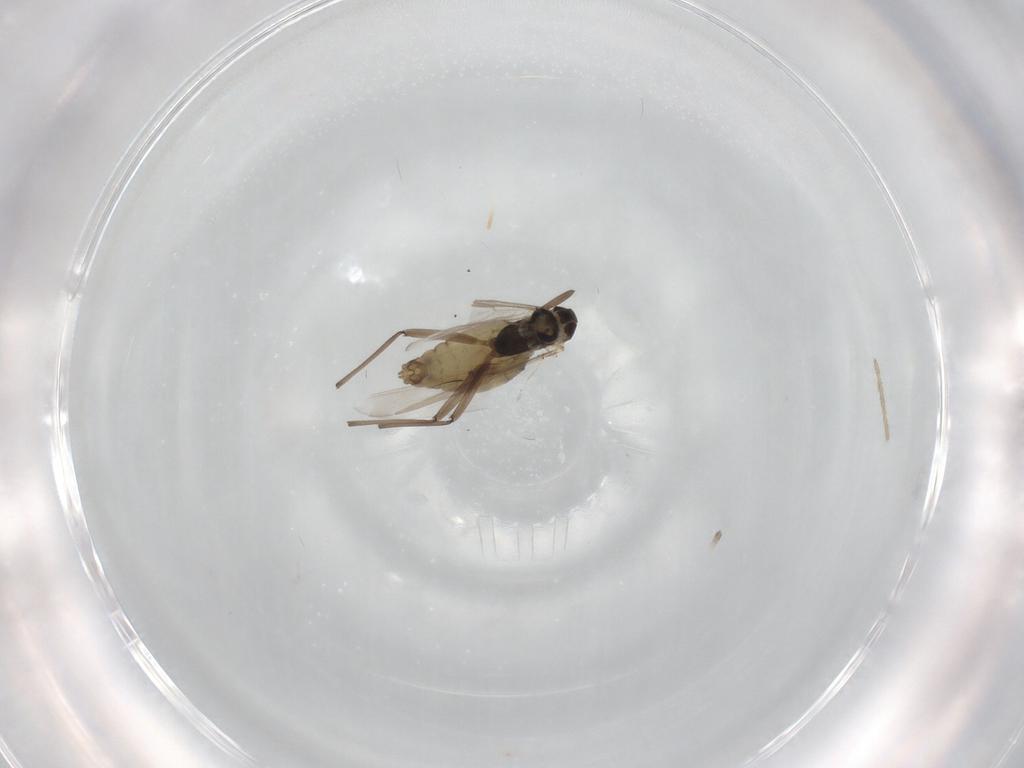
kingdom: Animalia
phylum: Arthropoda
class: Insecta
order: Diptera
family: Chironomidae
